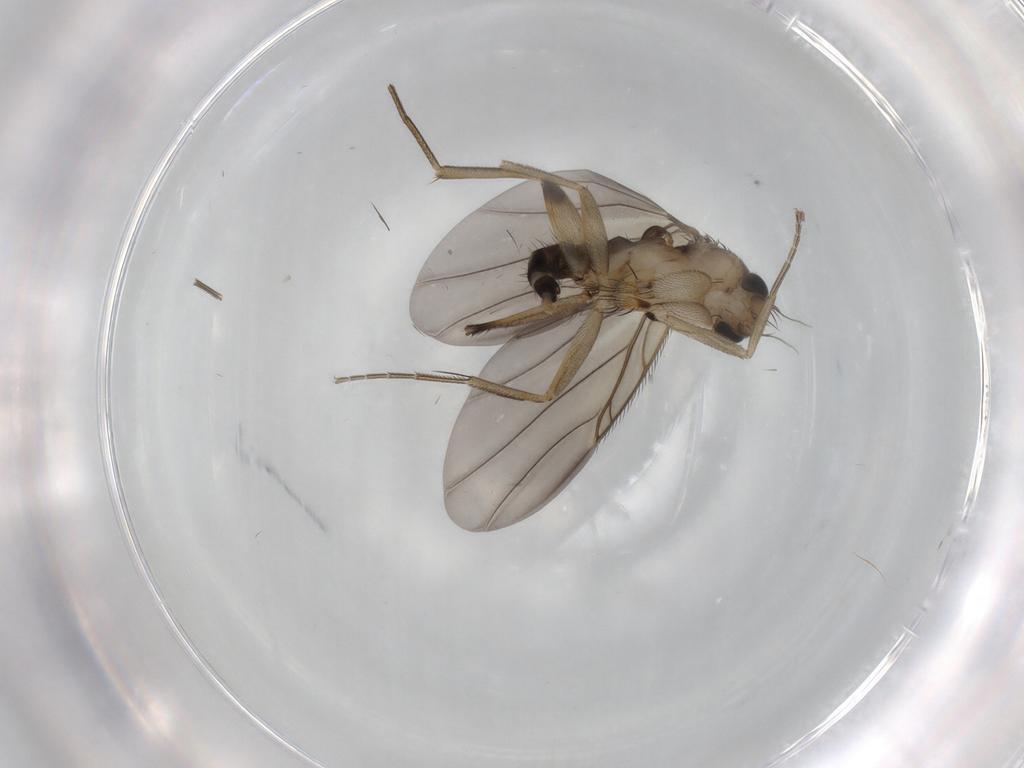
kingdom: Animalia
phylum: Arthropoda
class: Insecta
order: Diptera
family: Phoridae
